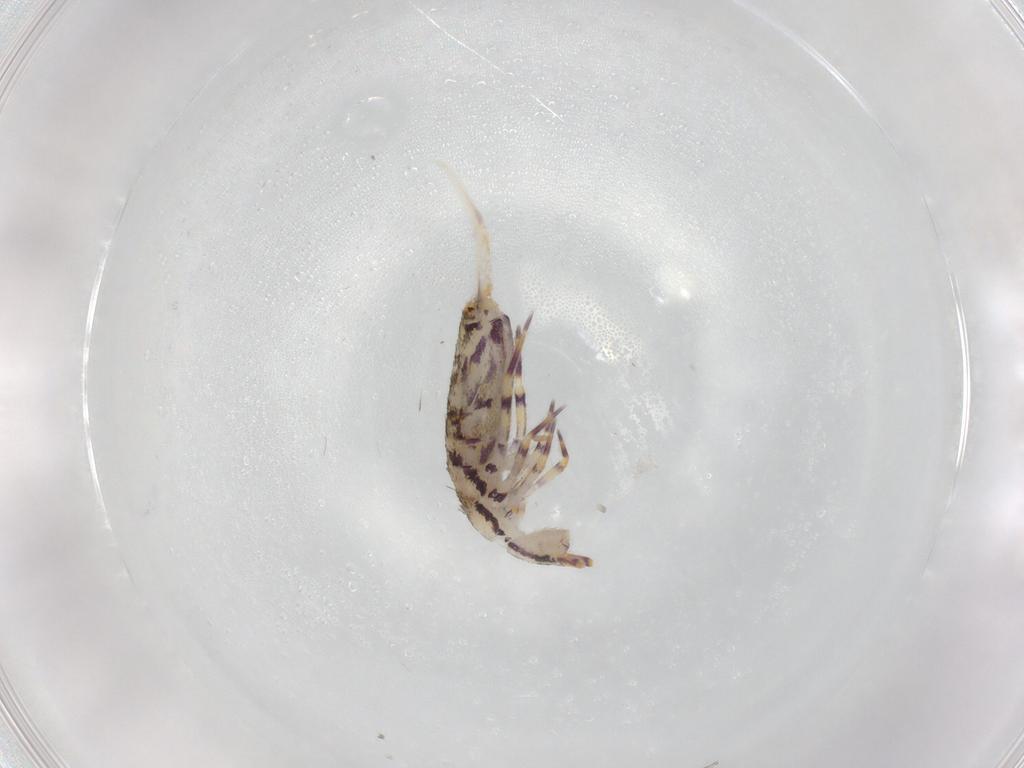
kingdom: Animalia
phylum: Arthropoda
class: Collembola
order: Entomobryomorpha
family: Entomobryidae
